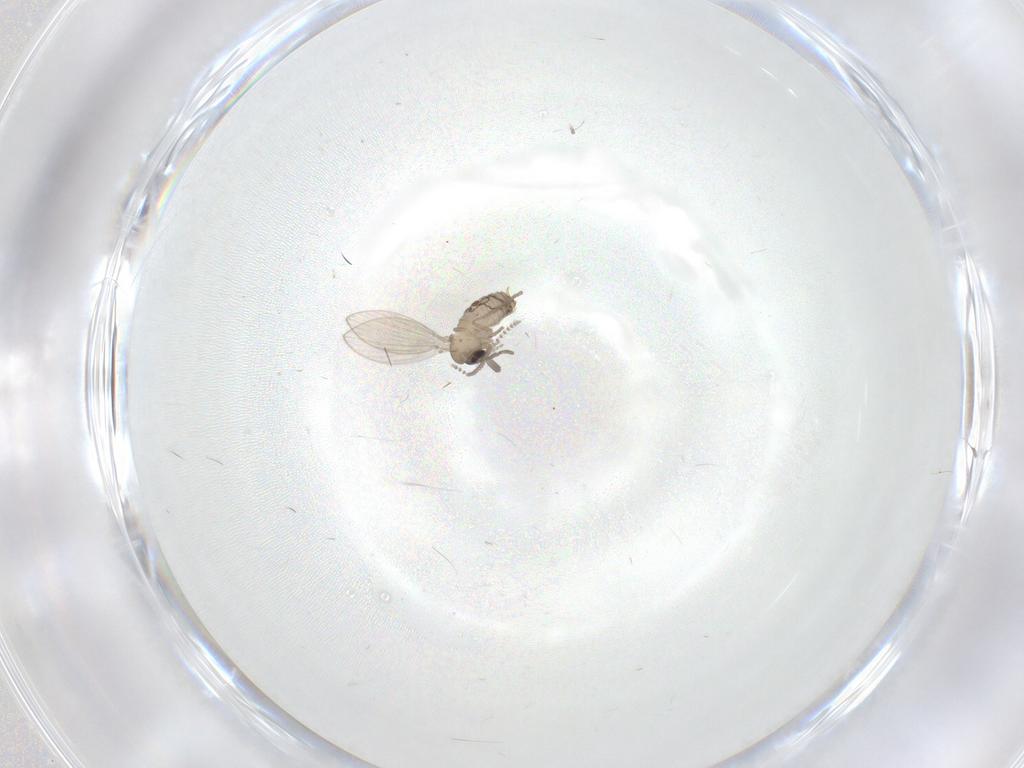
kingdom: Animalia
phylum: Arthropoda
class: Insecta
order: Diptera
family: Psychodidae
